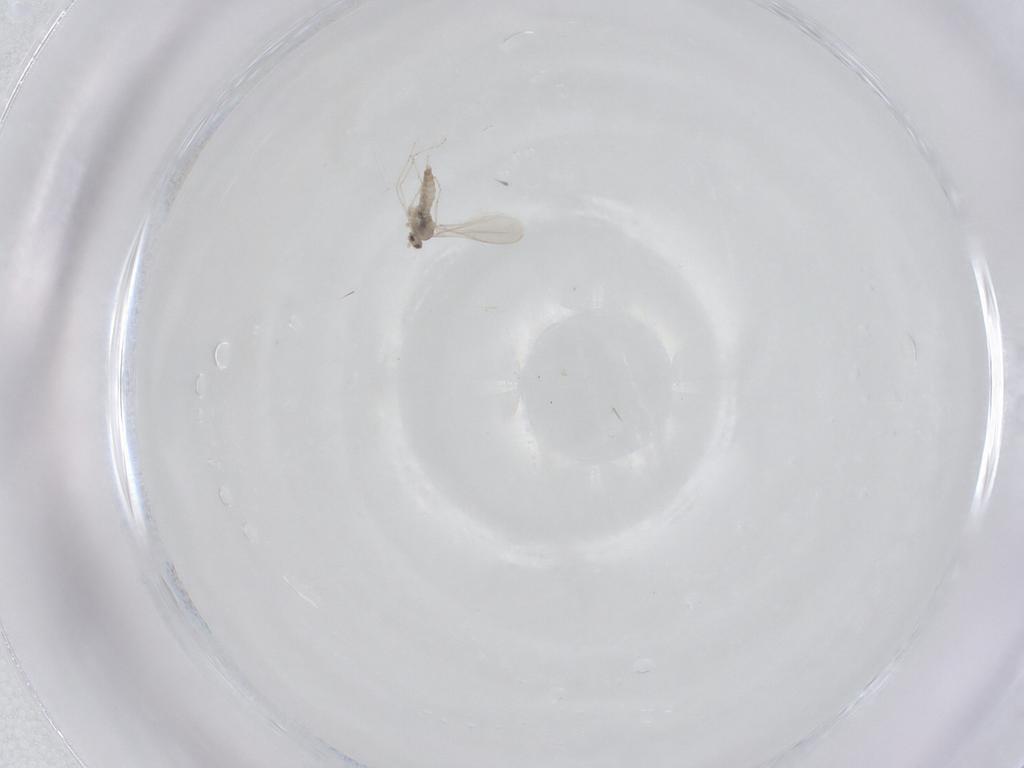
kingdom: Animalia
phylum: Arthropoda
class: Insecta
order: Diptera
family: Cecidomyiidae
